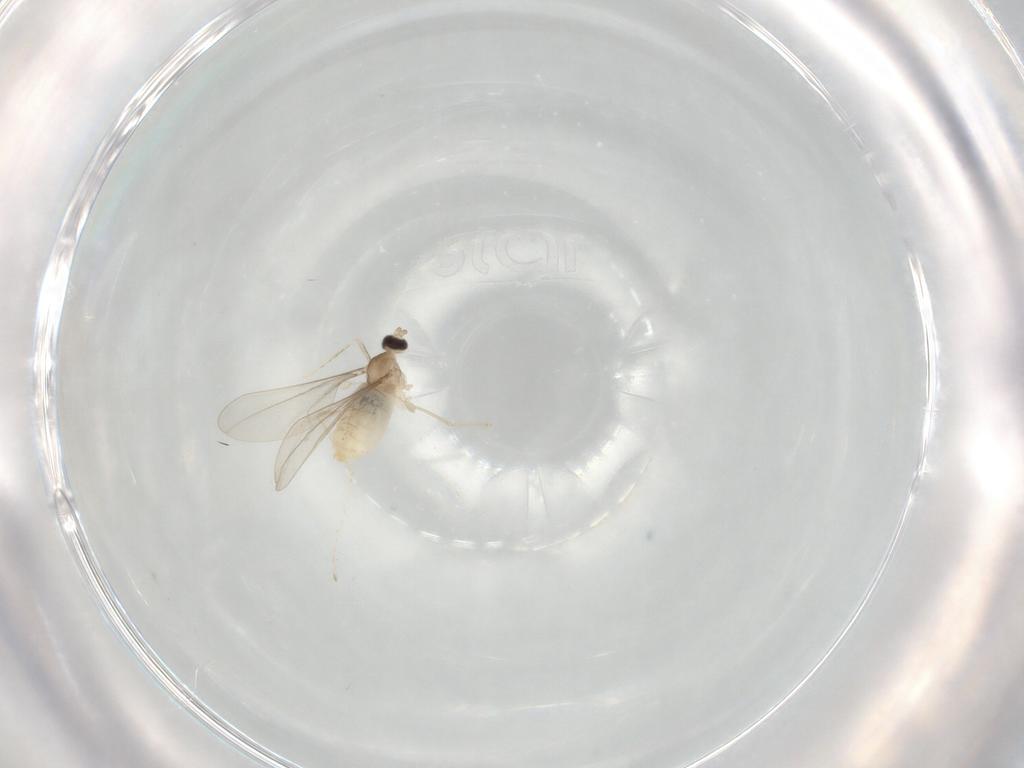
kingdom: Animalia
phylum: Arthropoda
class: Insecta
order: Diptera
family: Cecidomyiidae
